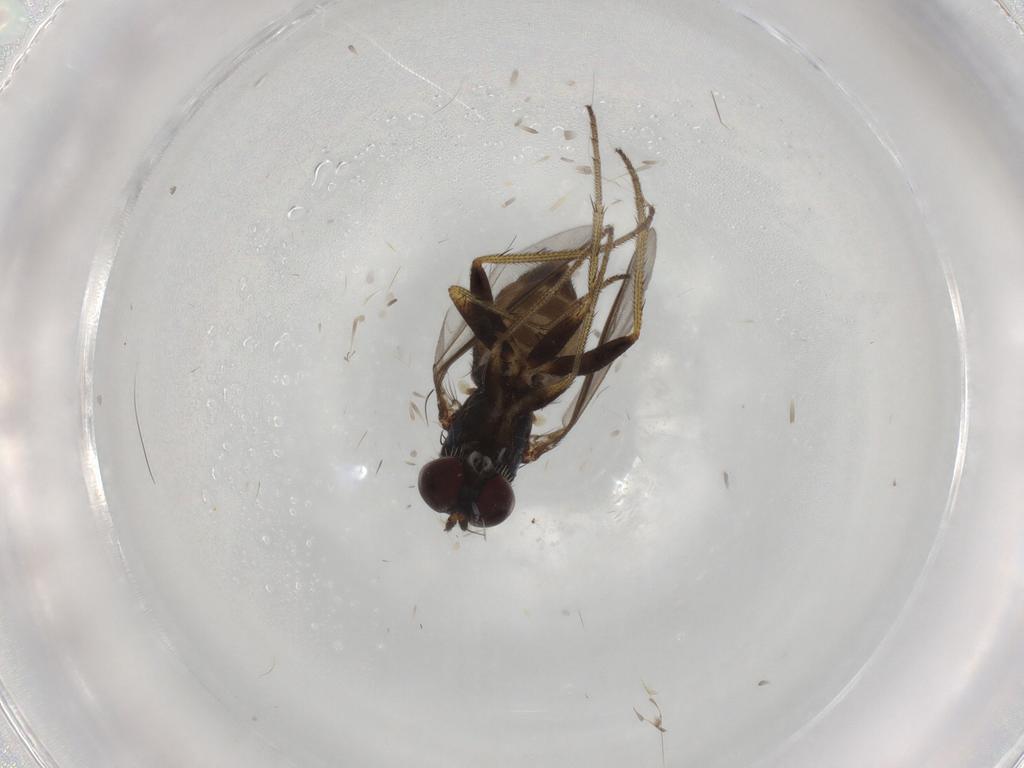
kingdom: Animalia
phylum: Arthropoda
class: Insecta
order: Diptera
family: Dolichopodidae
